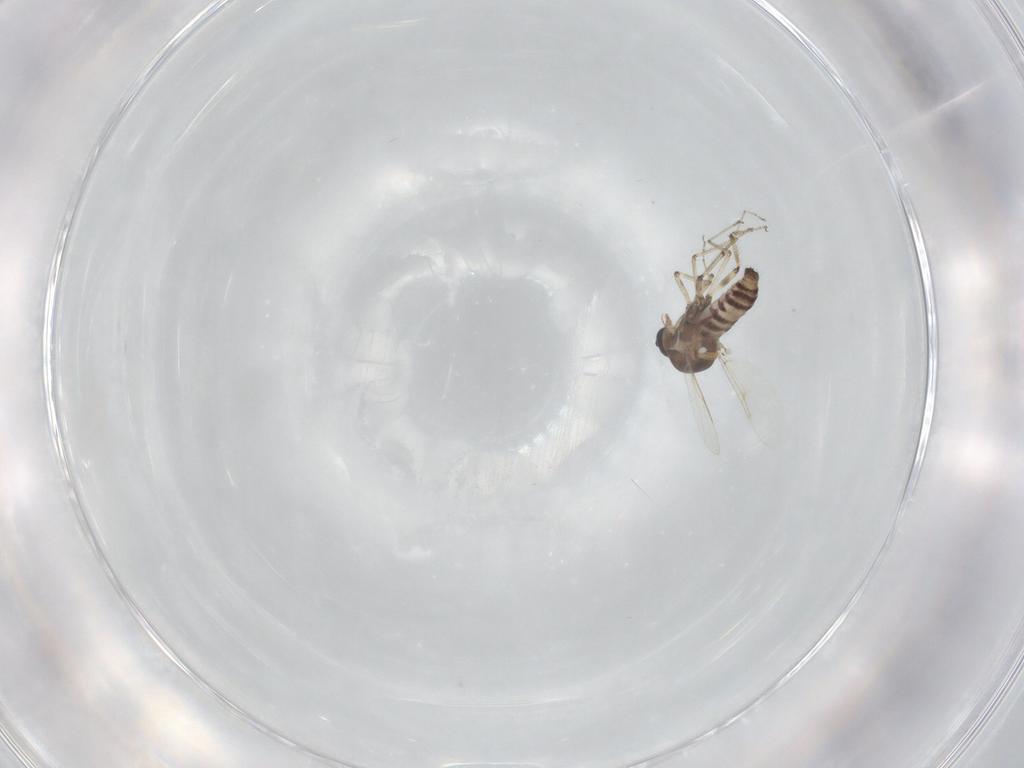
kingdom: Animalia
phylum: Arthropoda
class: Insecta
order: Diptera
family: Ceratopogonidae
